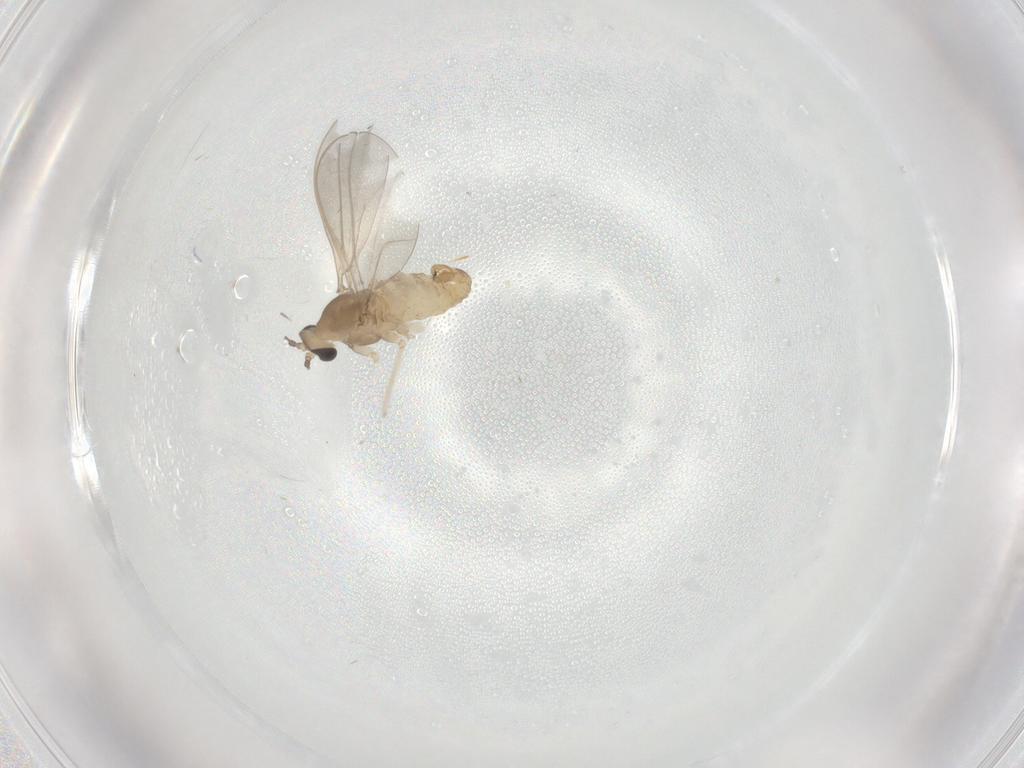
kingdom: Animalia
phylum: Arthropoda
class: Insecta
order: Diptera
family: Cecidomyiidae
